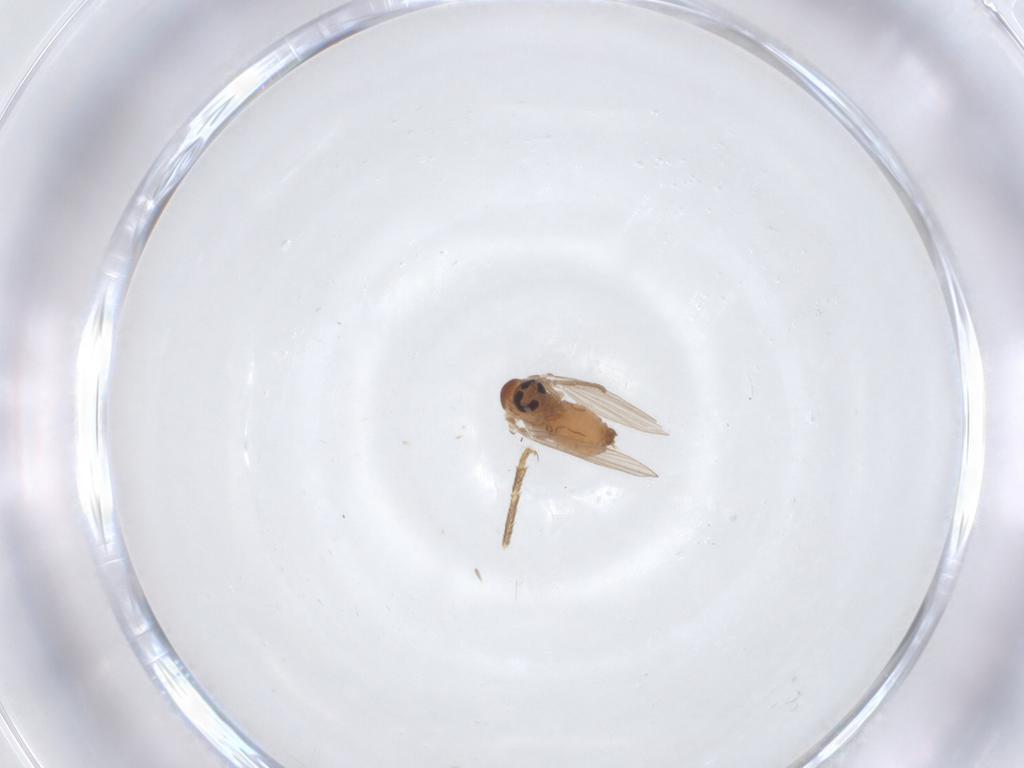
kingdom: Animalia
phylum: Arthropoda
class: Insecta
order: Diptera
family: Psychodidae
